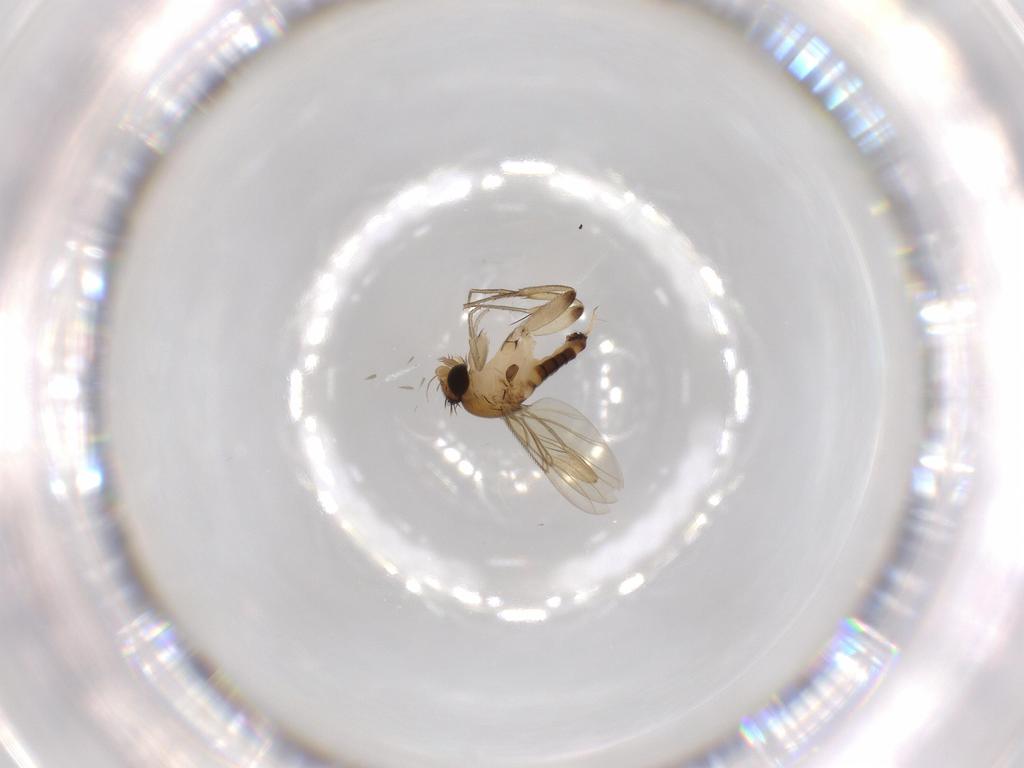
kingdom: Animalia
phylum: Arthropoda
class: Insecta
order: Diptera
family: Phoridae
